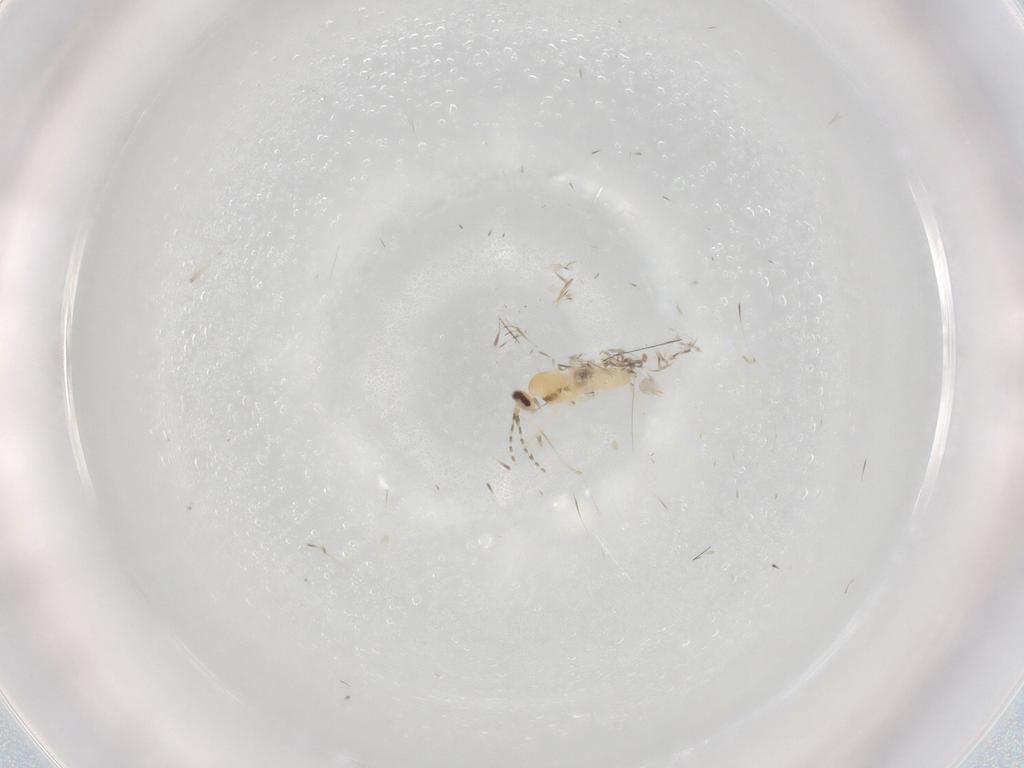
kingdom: Animalia
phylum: Arthropoda
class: Insecta
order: Diptera
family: Cecidomyiidae
